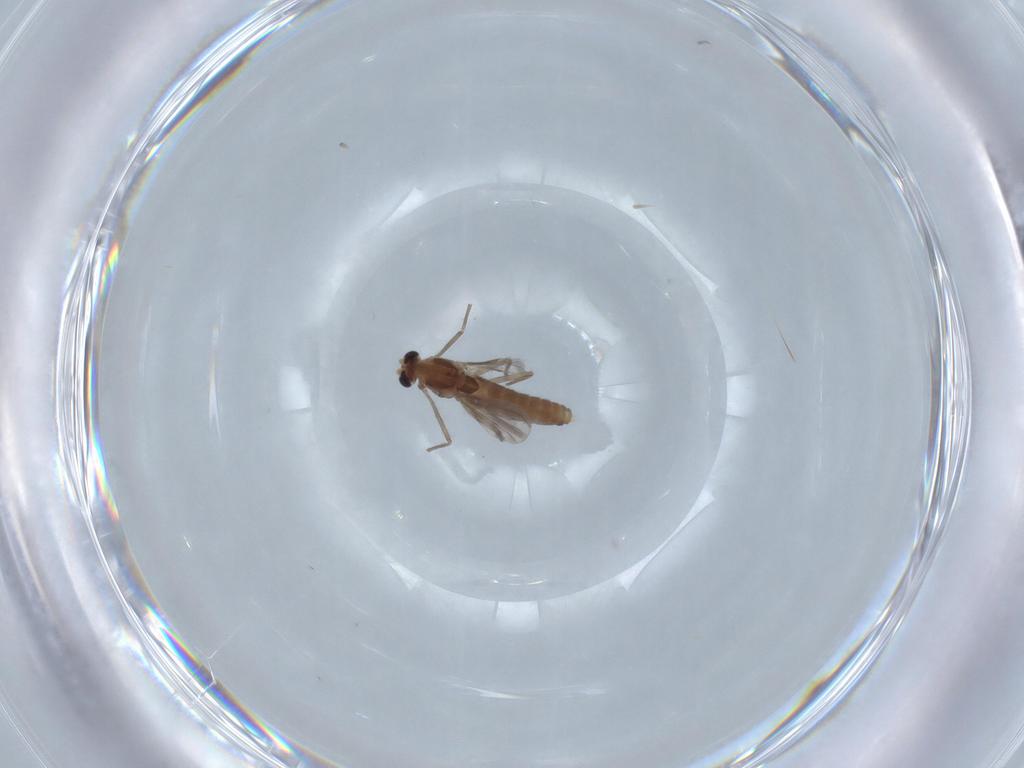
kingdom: Animalia
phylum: Arthropoda
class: Insecta
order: Diptera
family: Chironomidae
